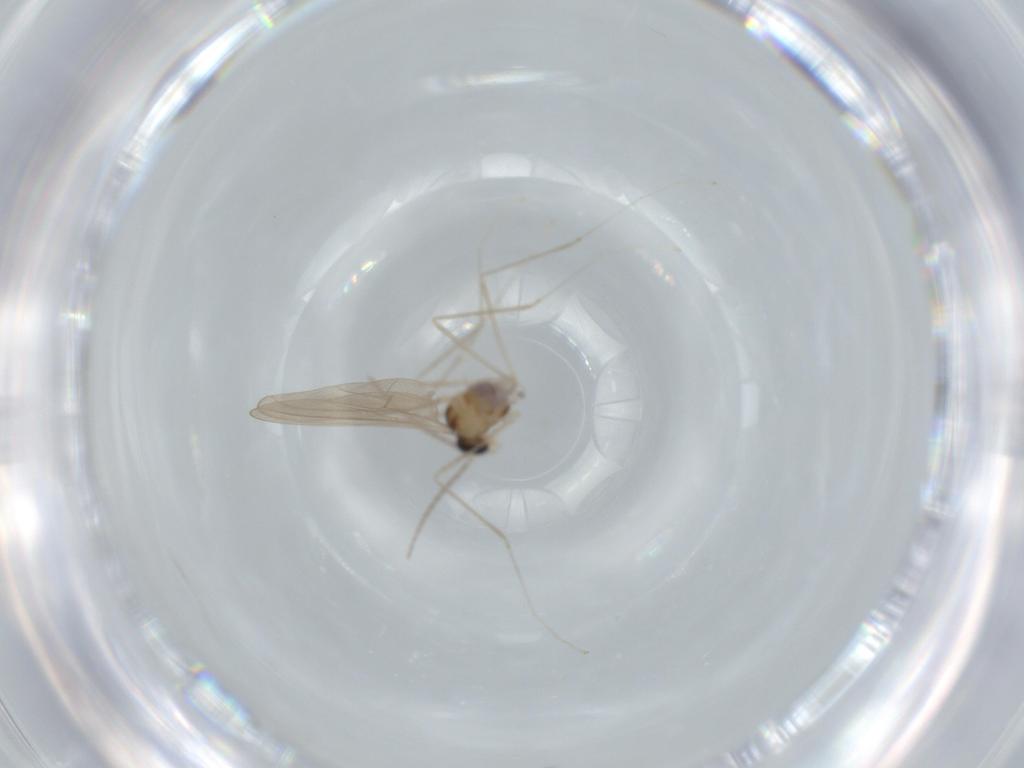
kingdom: Animalia
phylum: Arthropoda
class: Insecta
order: Diptera
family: Cecidomyiidae
